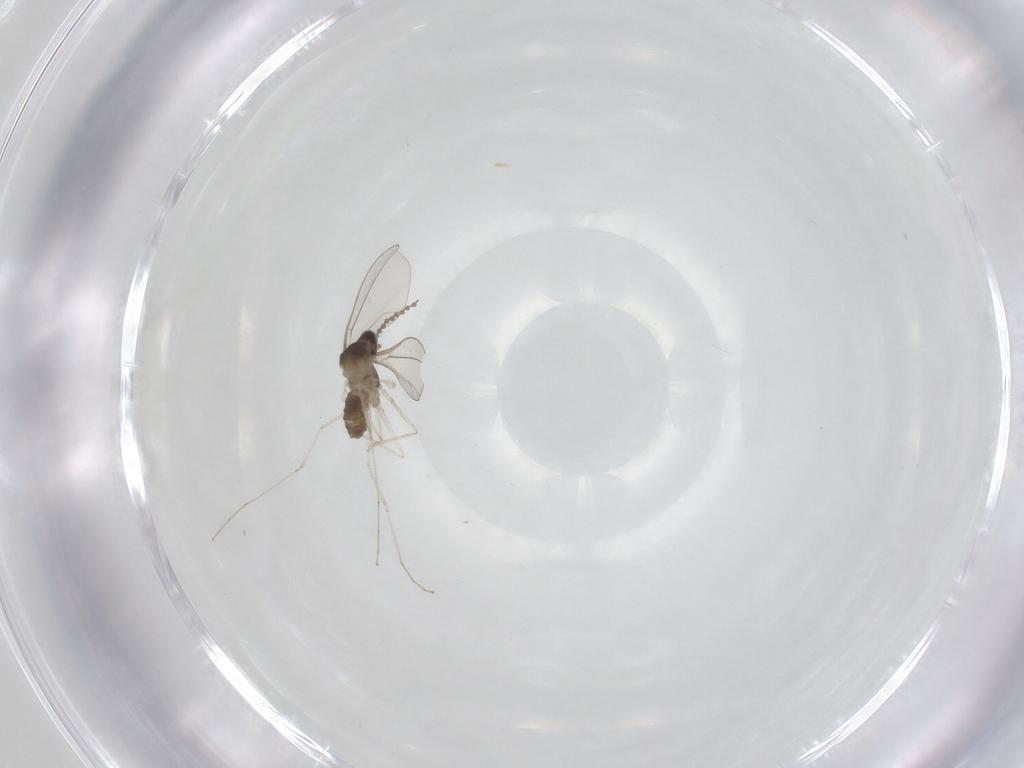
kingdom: Animalia
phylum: Arthropoda
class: Insecta
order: Diptera
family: Cecidomyiidae
